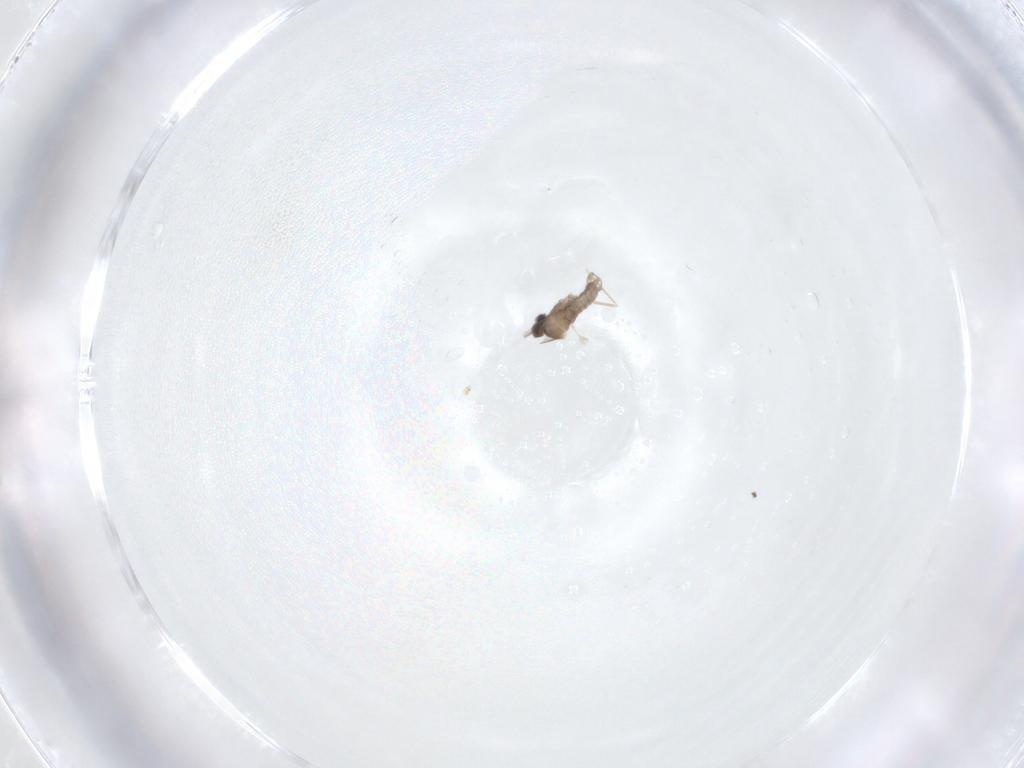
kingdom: Animalia
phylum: Arthropoda
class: Insecta
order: Diptera
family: Cecidomyiidae
